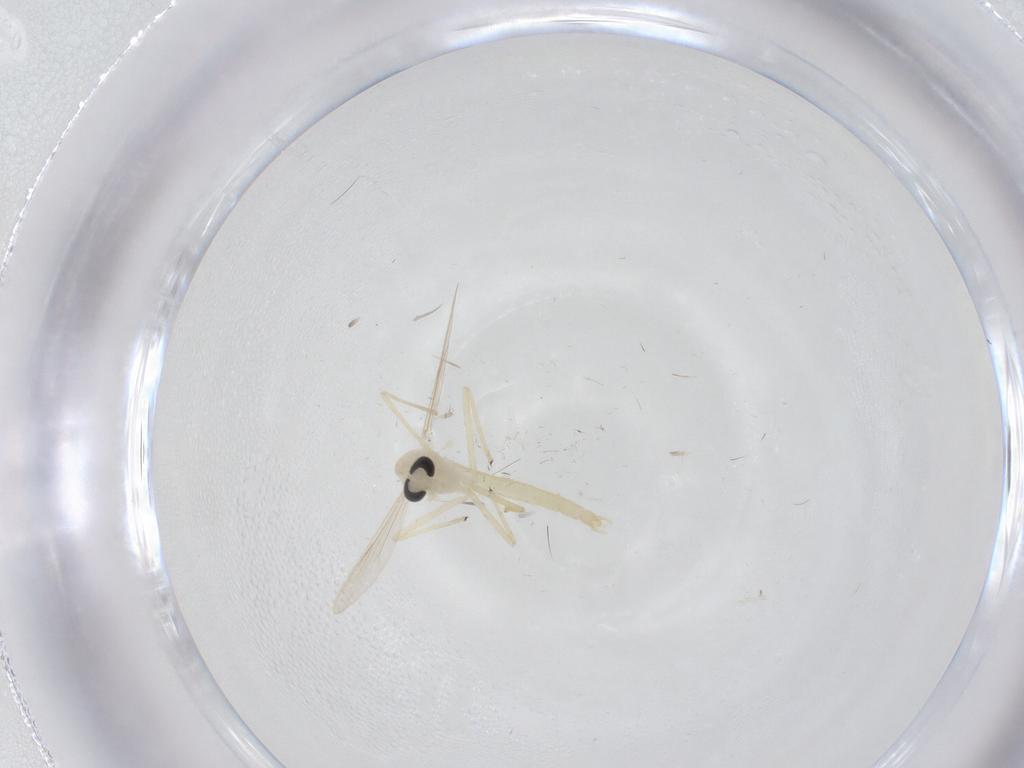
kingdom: Animalia
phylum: Arthropoda
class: Insecta
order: Diptera
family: Chironomidae
